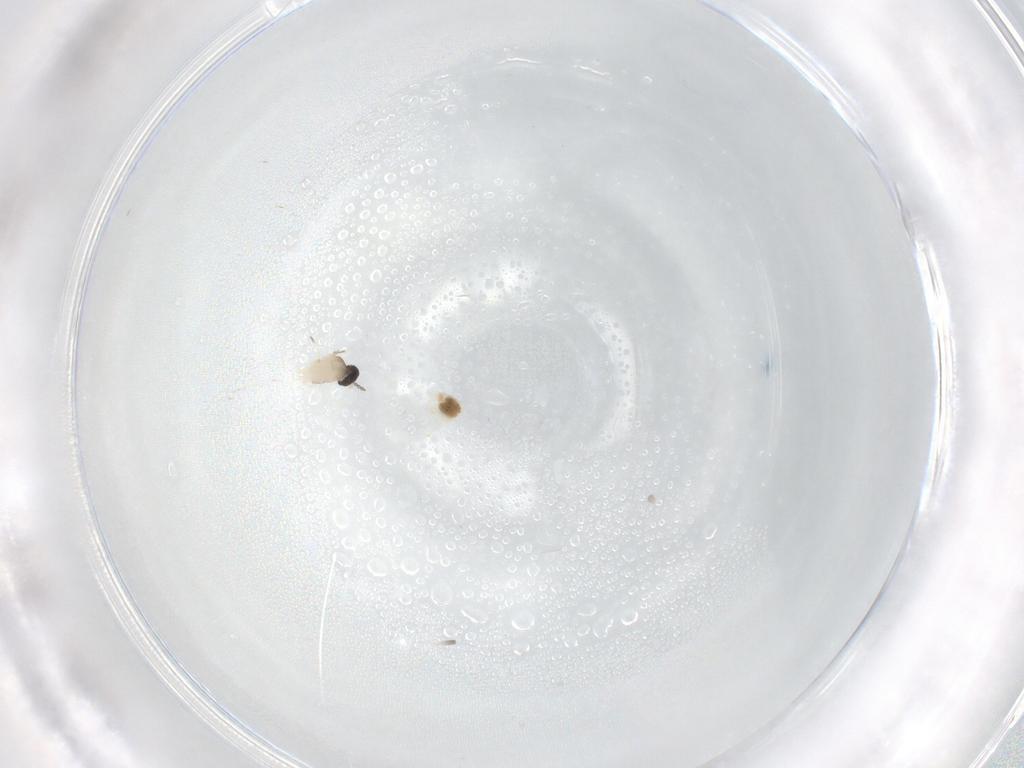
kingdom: Animalia
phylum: Arthropoda
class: Insecta
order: Diptera
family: Cecidomyiidae
